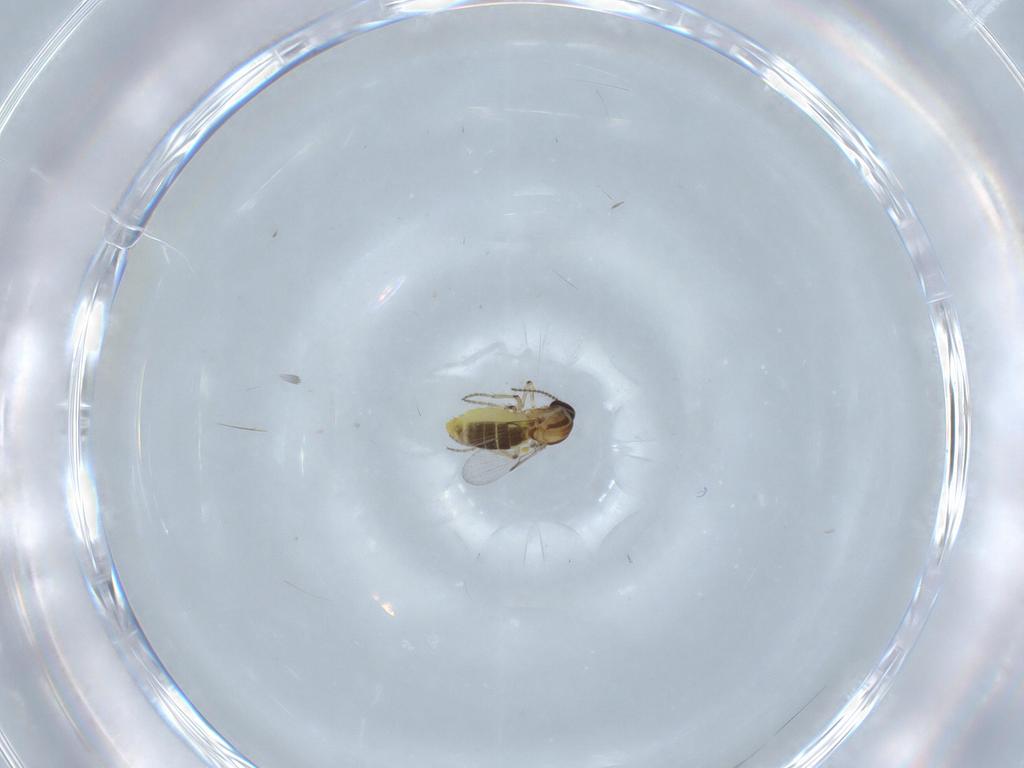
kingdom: Animalia
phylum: Arthropoda
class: Insecta
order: Diptera
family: Ceratopogonidae
